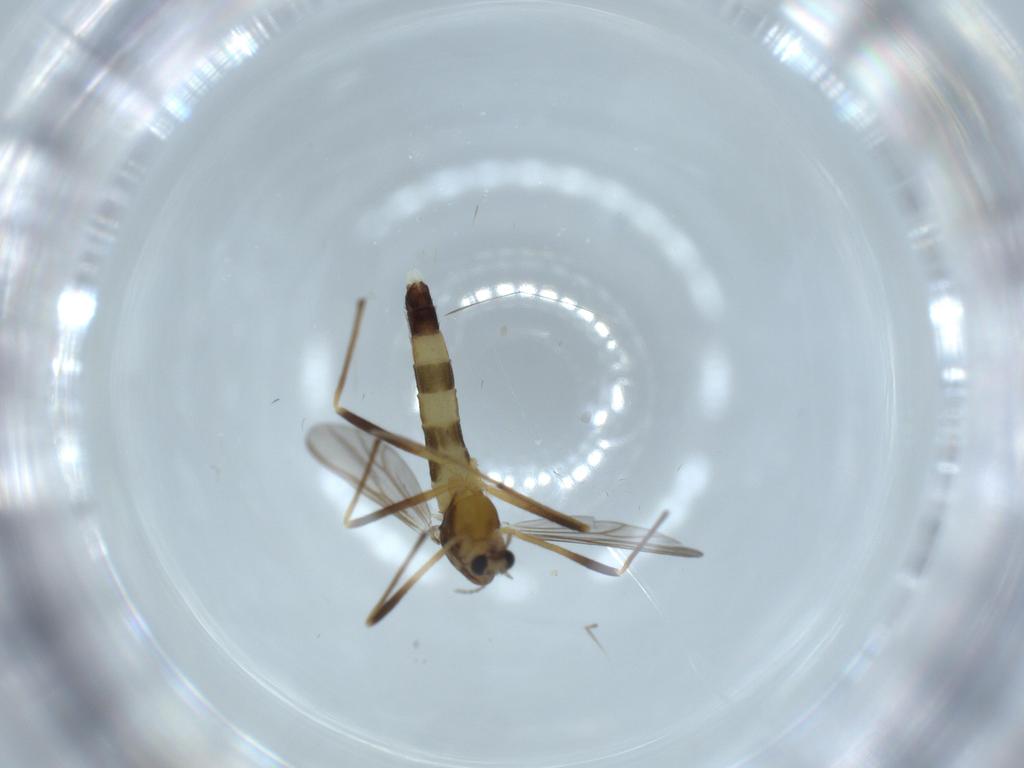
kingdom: Animalia
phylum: Arthropoda
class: Insecta
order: Diptera
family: Chironomidae
